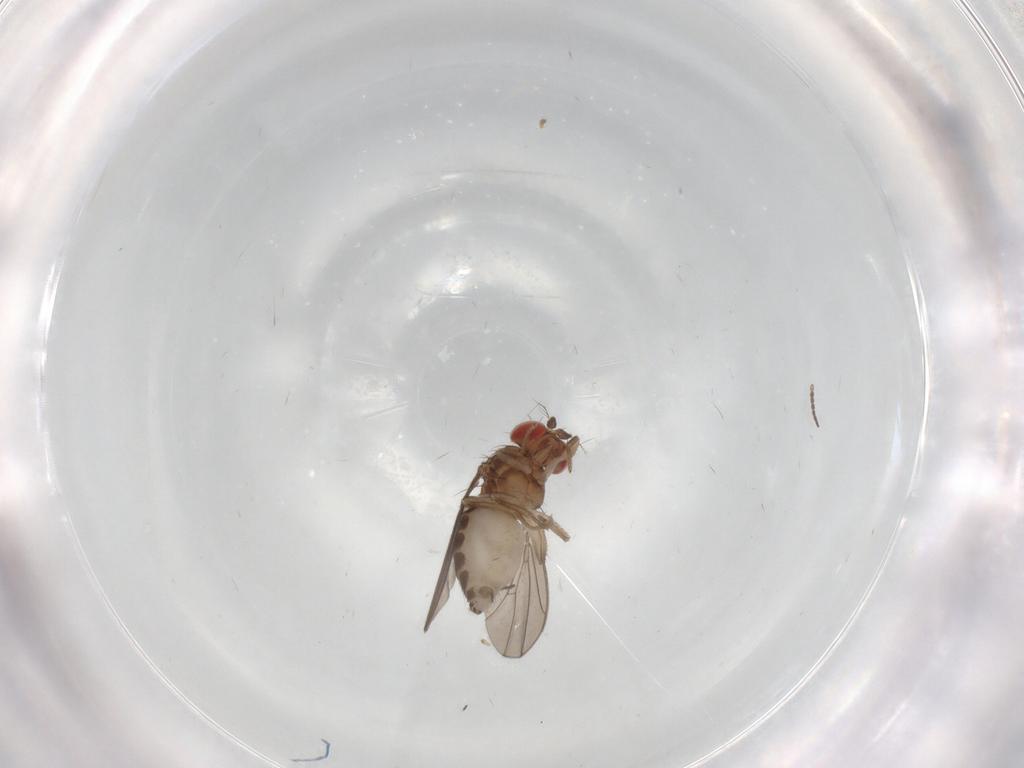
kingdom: Animalia
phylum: Arthropoda
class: Insecta
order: Diptera
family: Drosophilidae
